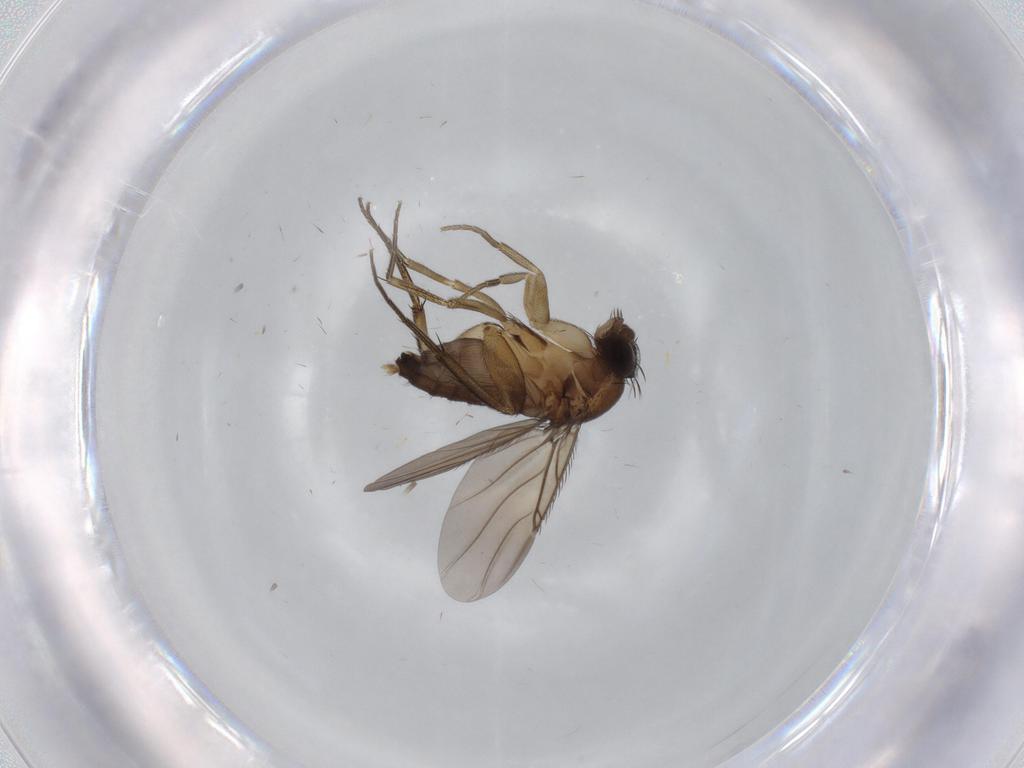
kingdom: Animalia
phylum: Arthropoda
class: Insecta
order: Diptera
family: Phoridae
